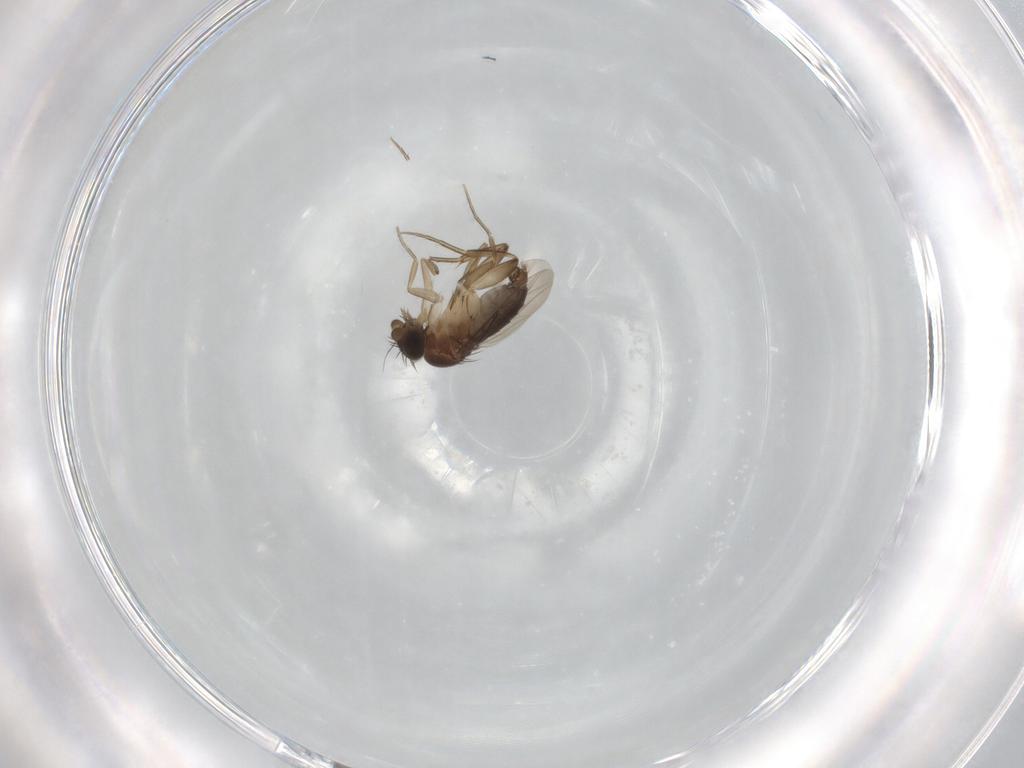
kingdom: Animalia
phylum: Arthropoda
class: Insecta
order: Diptera
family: Phoridae
